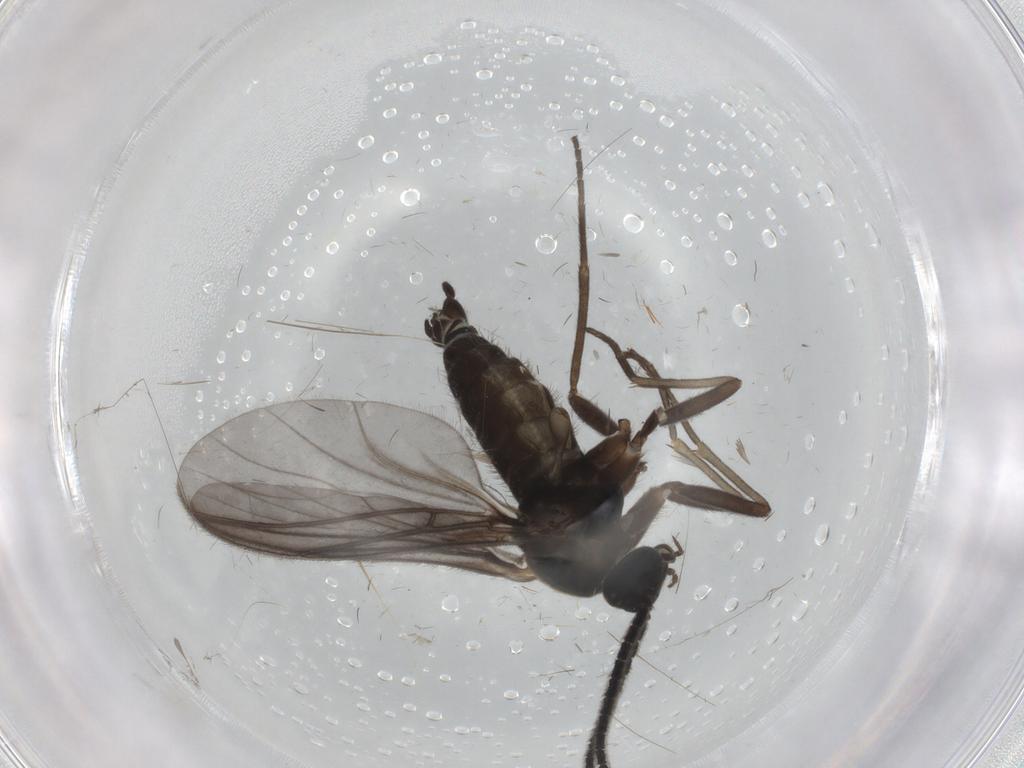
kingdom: Animalia
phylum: Arthropoda
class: Insecta
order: Diptera
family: Sciaridae
